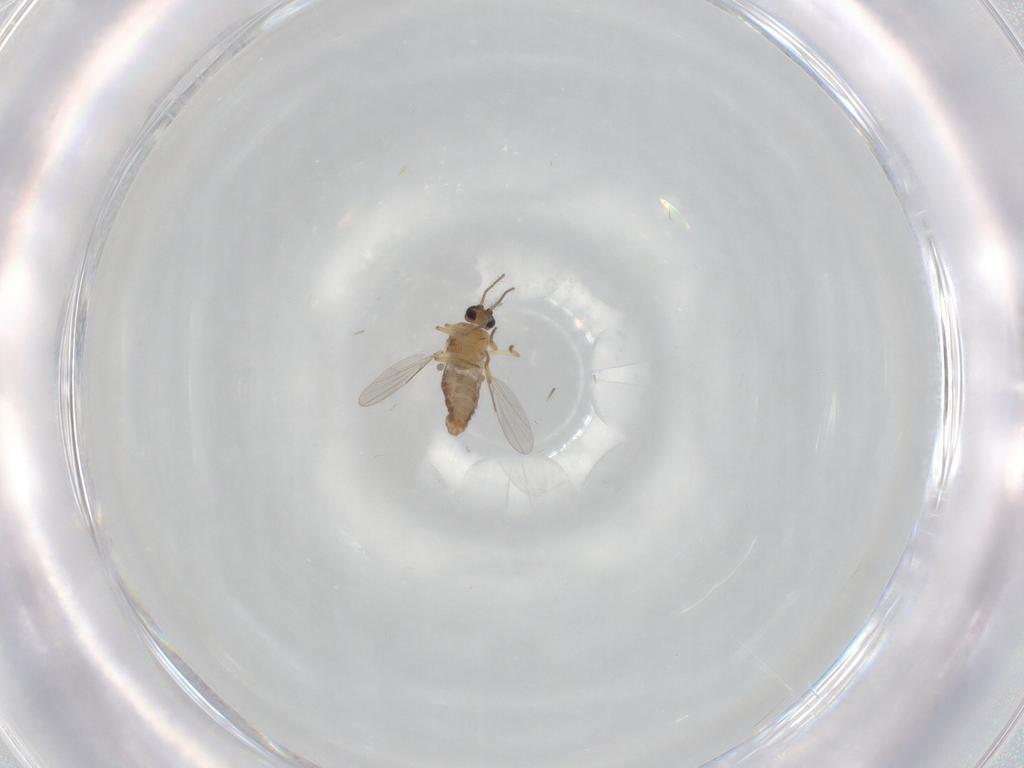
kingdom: Animalia
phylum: Arthropoda
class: Insecta
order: Diptera
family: Ceratopogonidae
